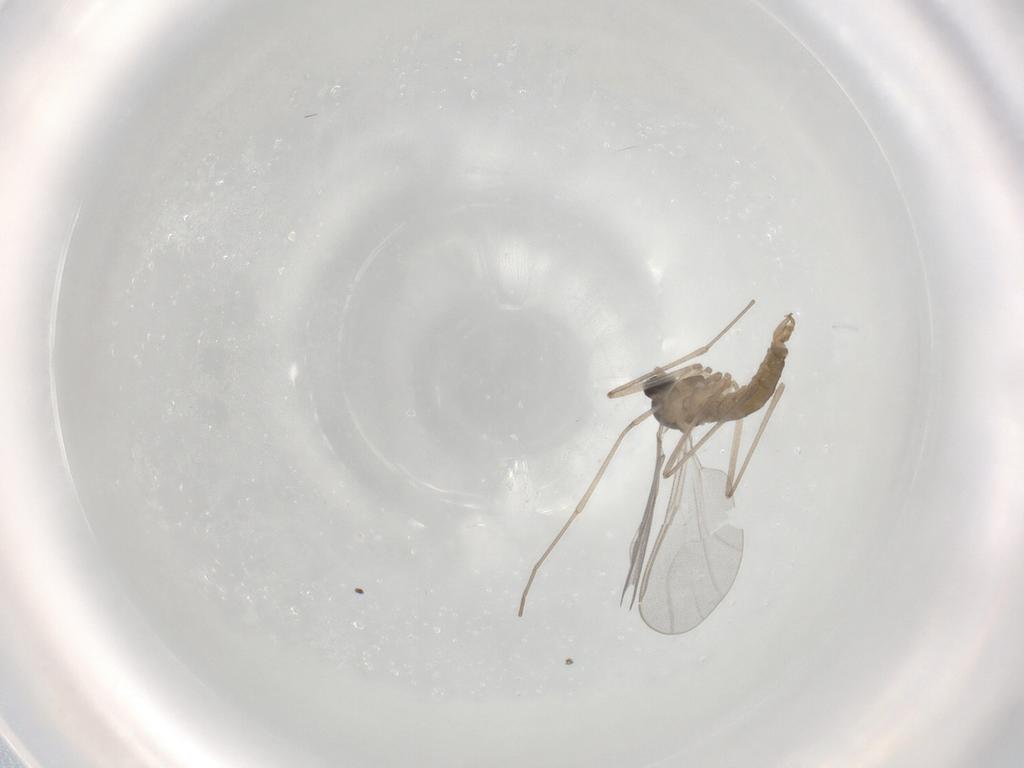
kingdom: Animalia
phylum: Arthropoda
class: Insecta
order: Diptera
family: Cecidomyiidae
